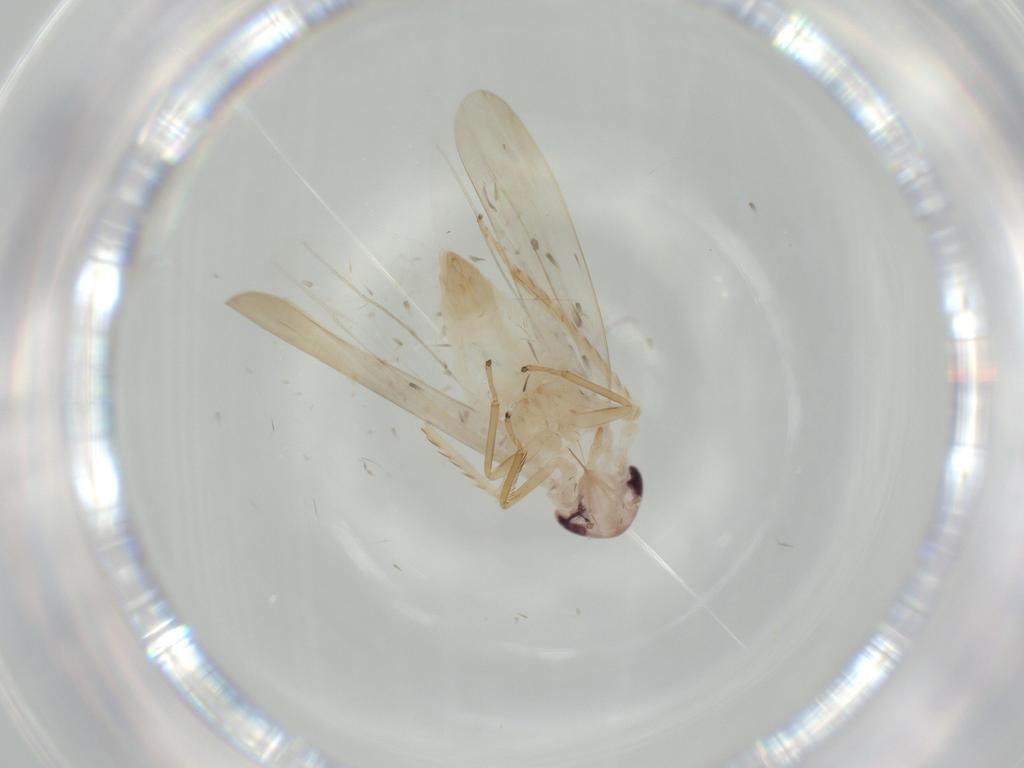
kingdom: Animalia
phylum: Arthropoda
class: Insecta
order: Hemiptera
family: Cicadellidae
